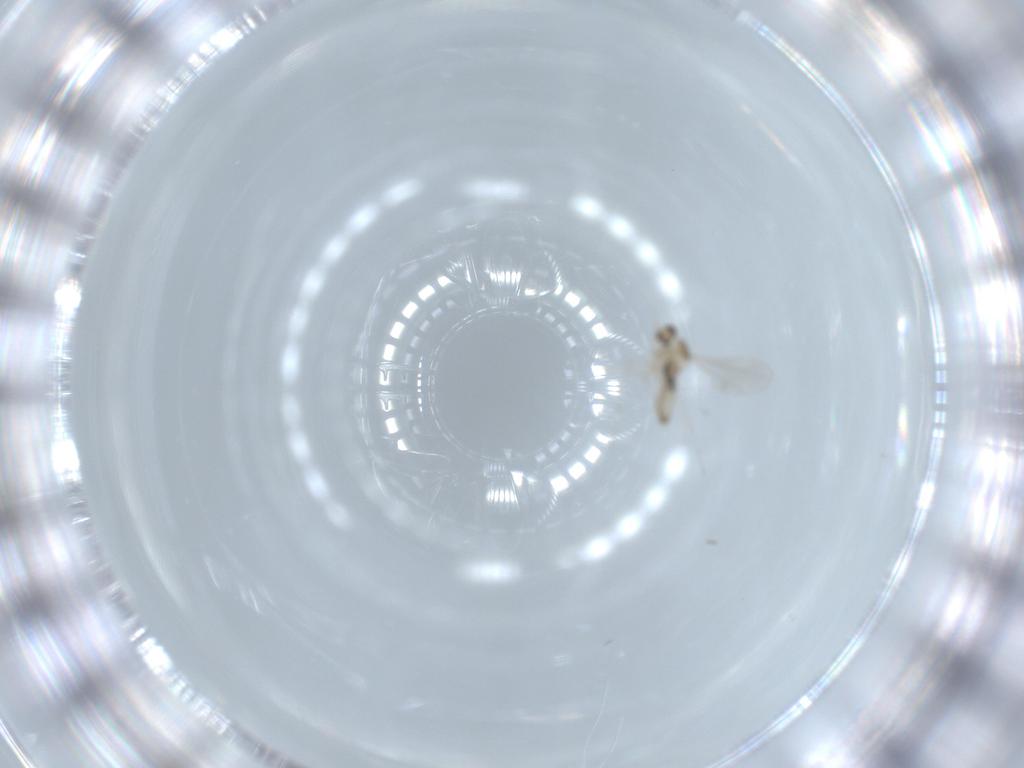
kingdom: Animalia
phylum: Arthropoda
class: Insecta
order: Diptera
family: Cecidomyiidae
